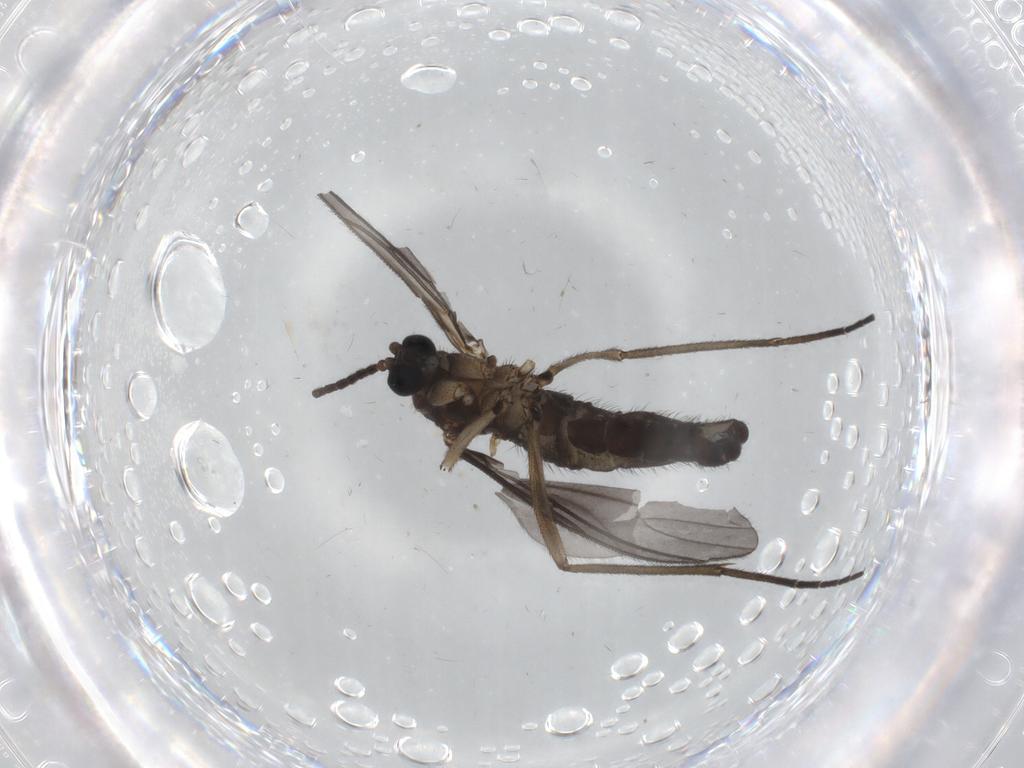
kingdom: Animalia
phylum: Arthropoda
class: Insecta
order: Diptera
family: Sciaridae
